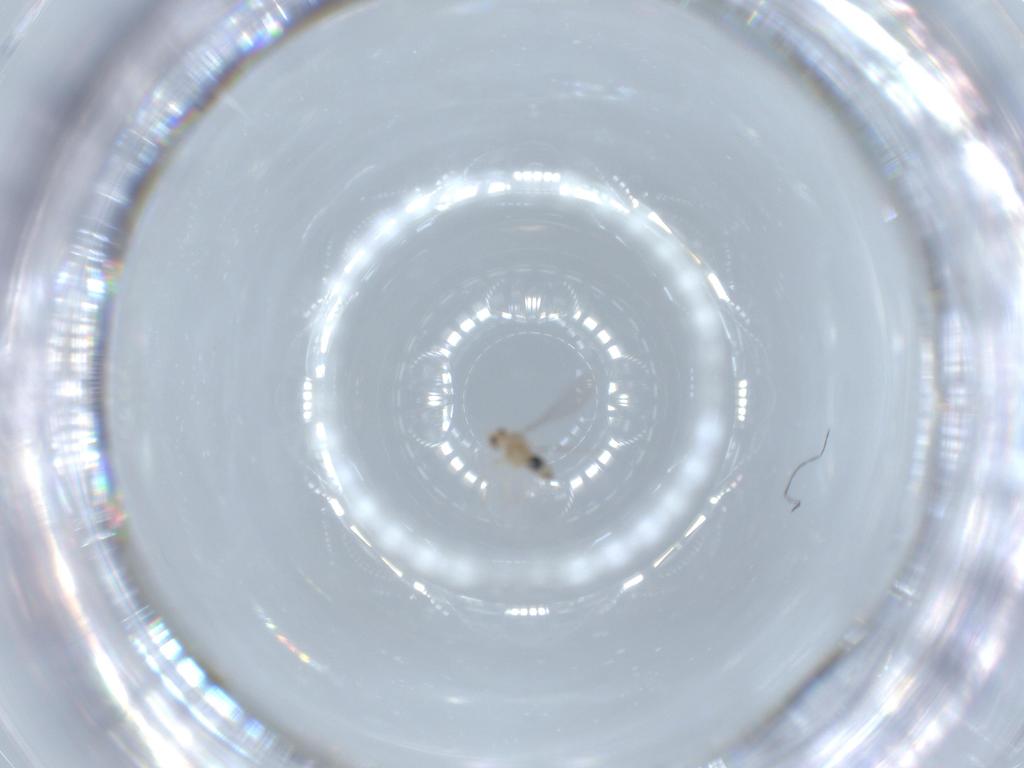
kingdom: Animalia
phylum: Arthropoda
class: Insecta
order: Diptera
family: Cecidomyiidae
